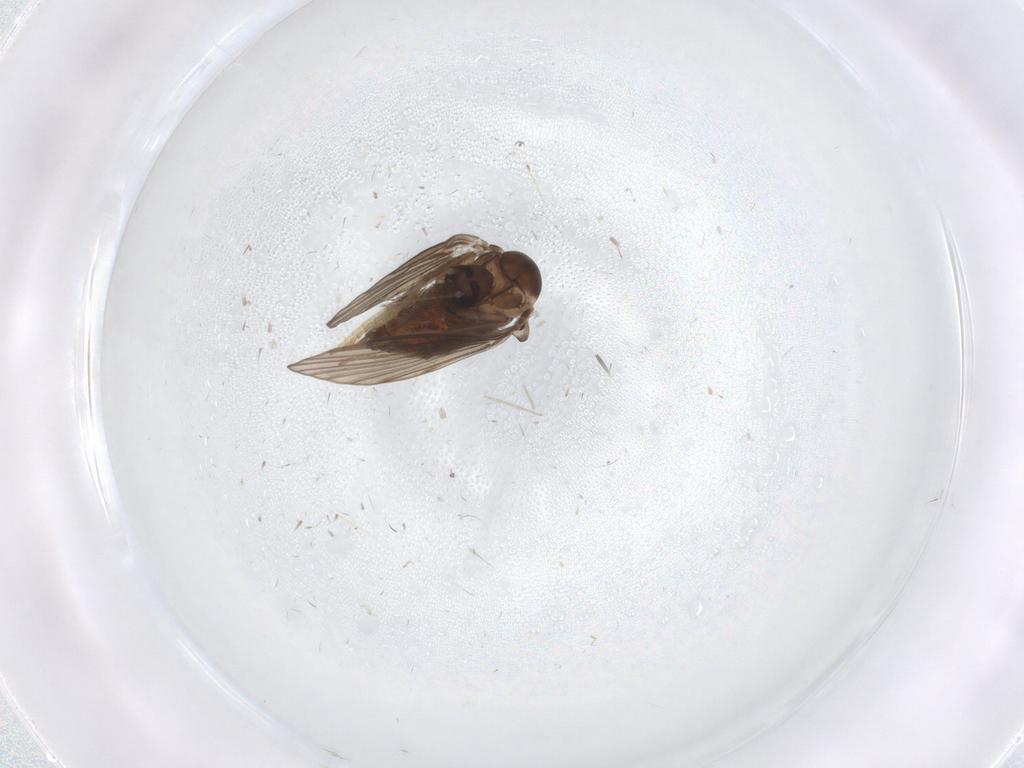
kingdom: Animalia
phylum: Arthropoda
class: Insecta
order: Diptera
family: Psychodidae
